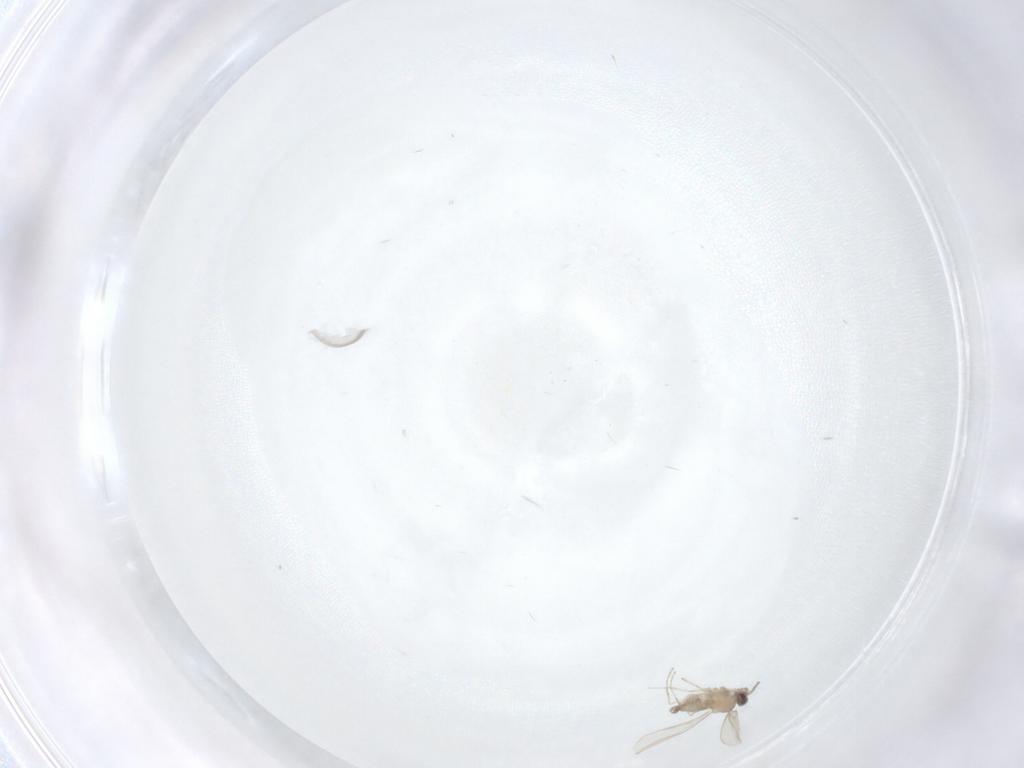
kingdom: Animalia
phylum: Arthropoda
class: Insecta
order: Diptera
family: Cecidomyiidae
